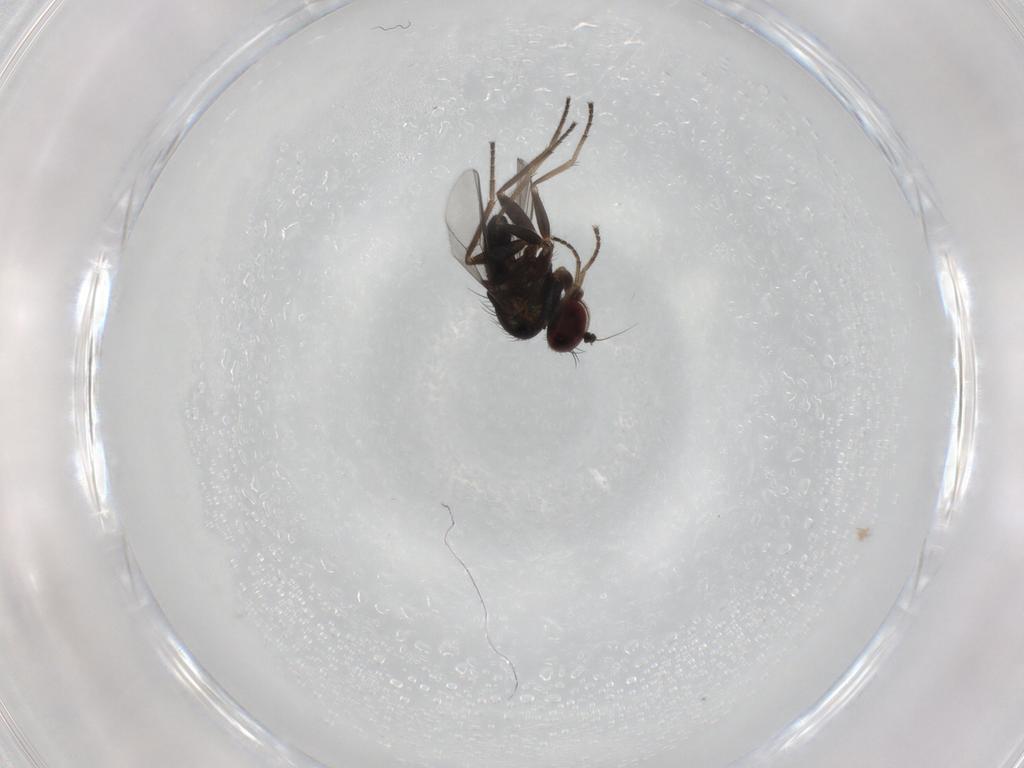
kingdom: Animalia
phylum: Arthropoda
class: Insecta
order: Diptera
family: Dolichopodidae
